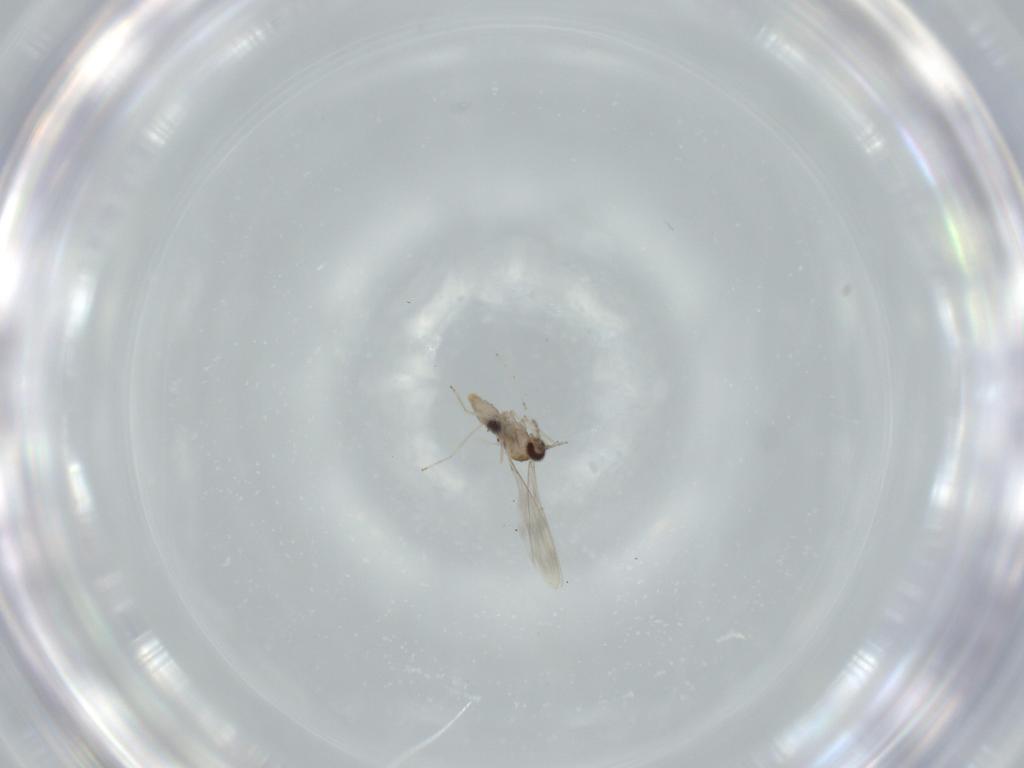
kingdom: Animalia
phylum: Arthropoda
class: Insecta
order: Diptera
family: Cecidomyiidae
